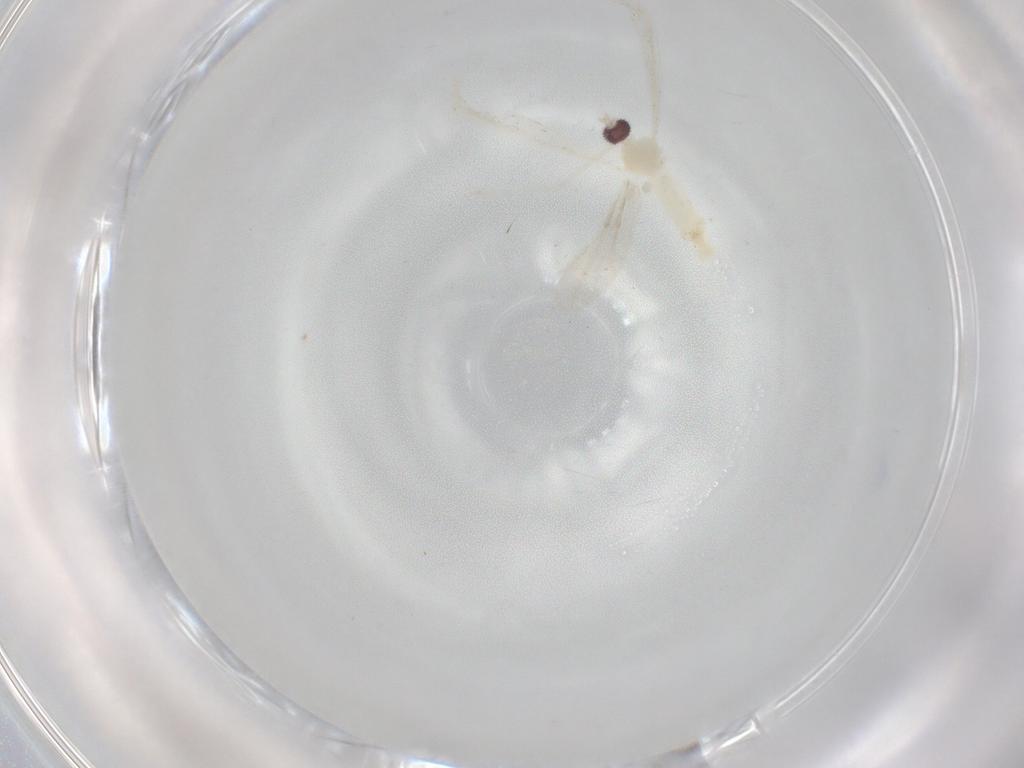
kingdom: Animalia
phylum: Arthropoda
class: Insecta
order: Diptera
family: Cecidomyiidae
